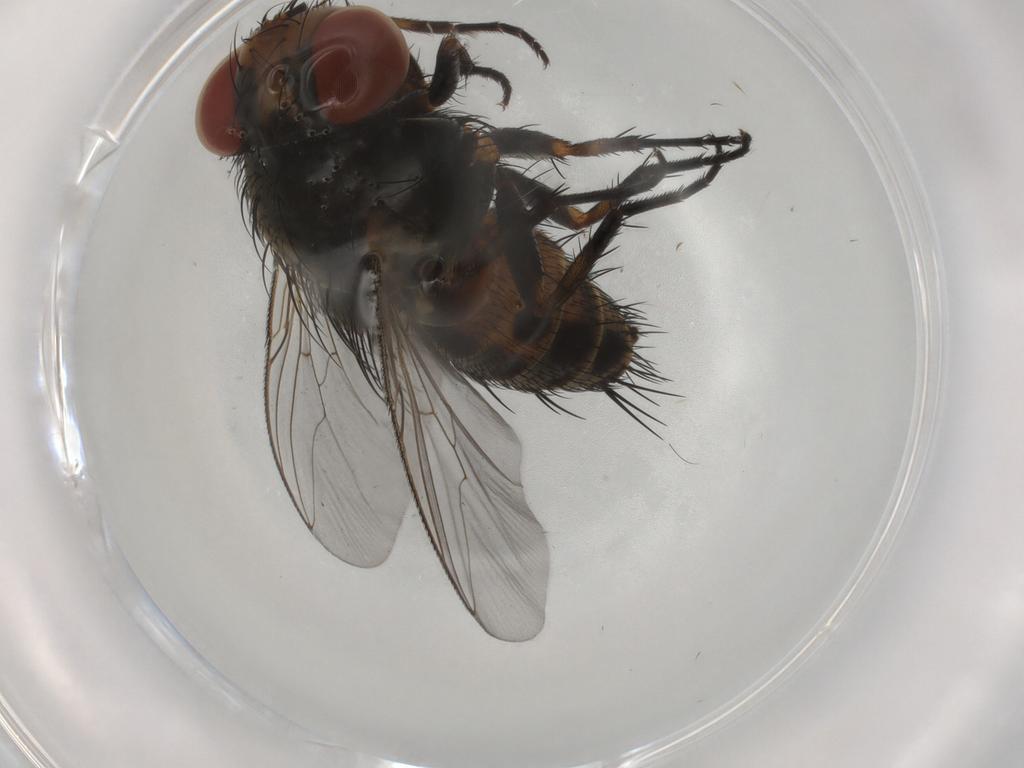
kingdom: Animalia
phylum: Arthropoda
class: Insecta
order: Diptera
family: Sarcophagidae
